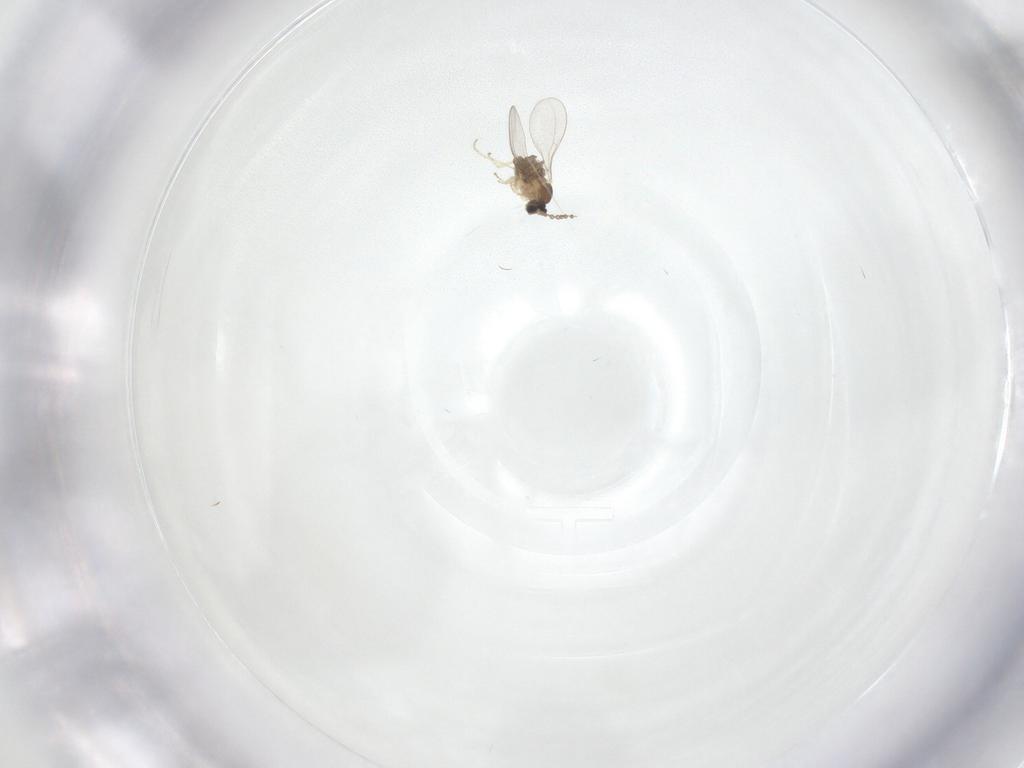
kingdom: Animalia
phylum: Arthropoda
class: Insecta
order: Diptera
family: Cecidomyiidae
